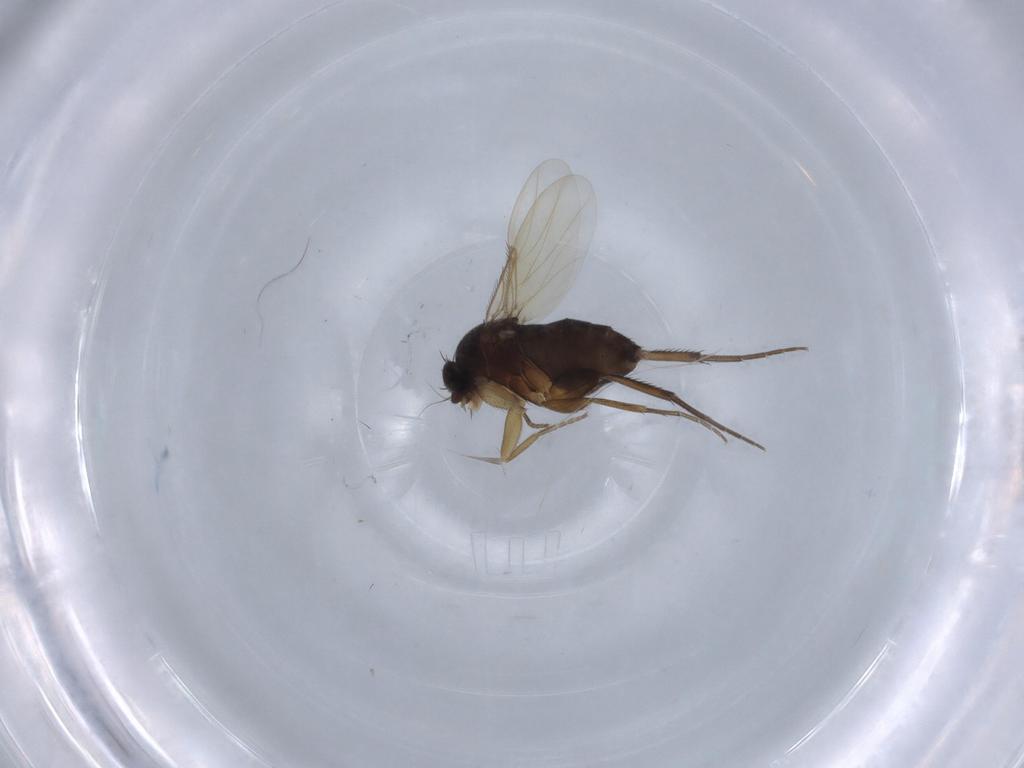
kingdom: Animalia
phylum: Arthropoda
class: Insecta
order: Diptera
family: Phoridae
